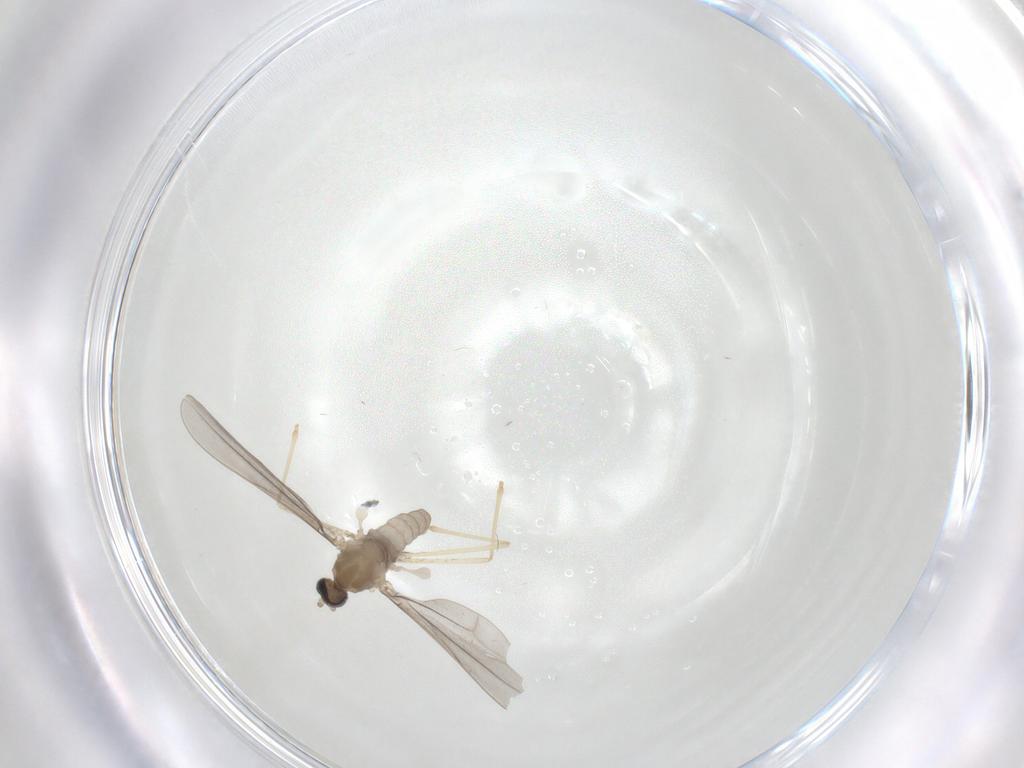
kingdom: Animalia
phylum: Arthropoda
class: Insecta
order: Diptera
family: Cecidomyiidae
